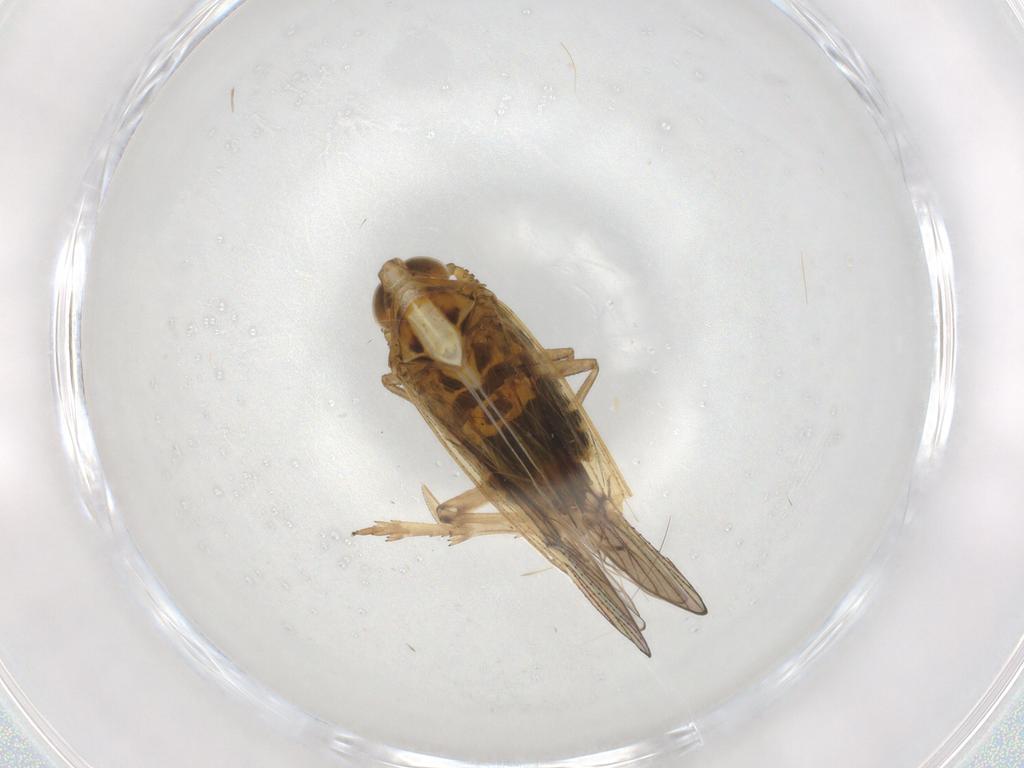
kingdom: Animalia
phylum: Arthropoda
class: Insecta
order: Hemiptera
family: Delphacidae
